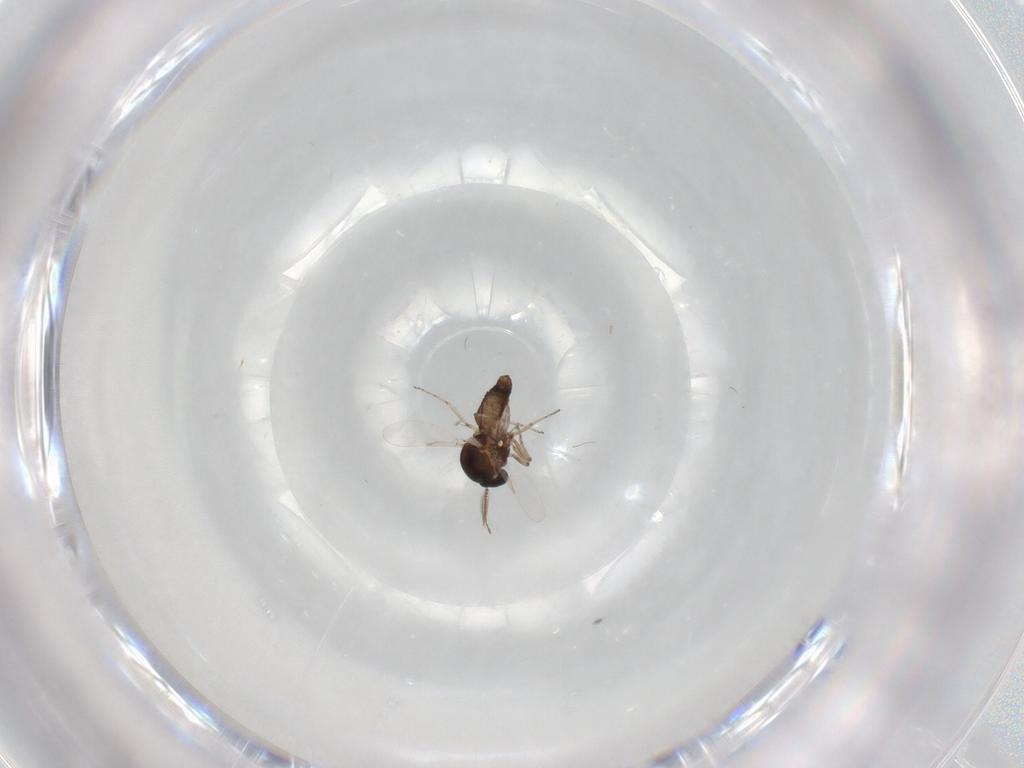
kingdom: Animalia
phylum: Arthropoda
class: Insecta
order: Diptera
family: Ceratopogonidae
